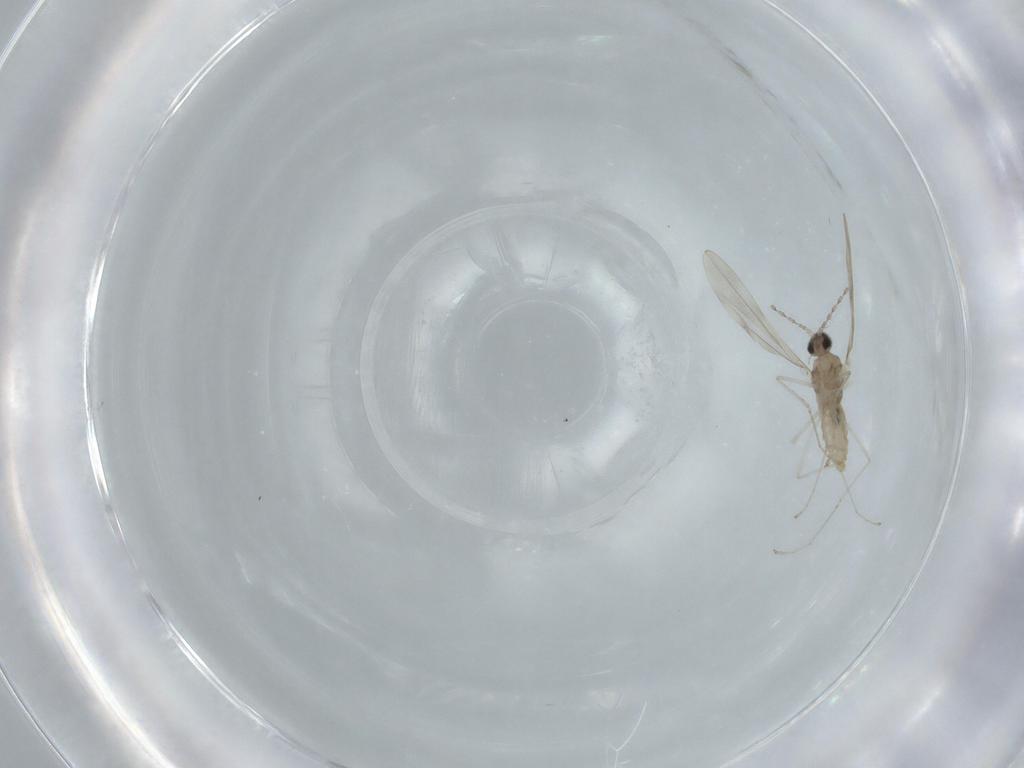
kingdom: Animalia
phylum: Arthropoda
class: Insecta
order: Diptera
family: Cecidomyiidae
